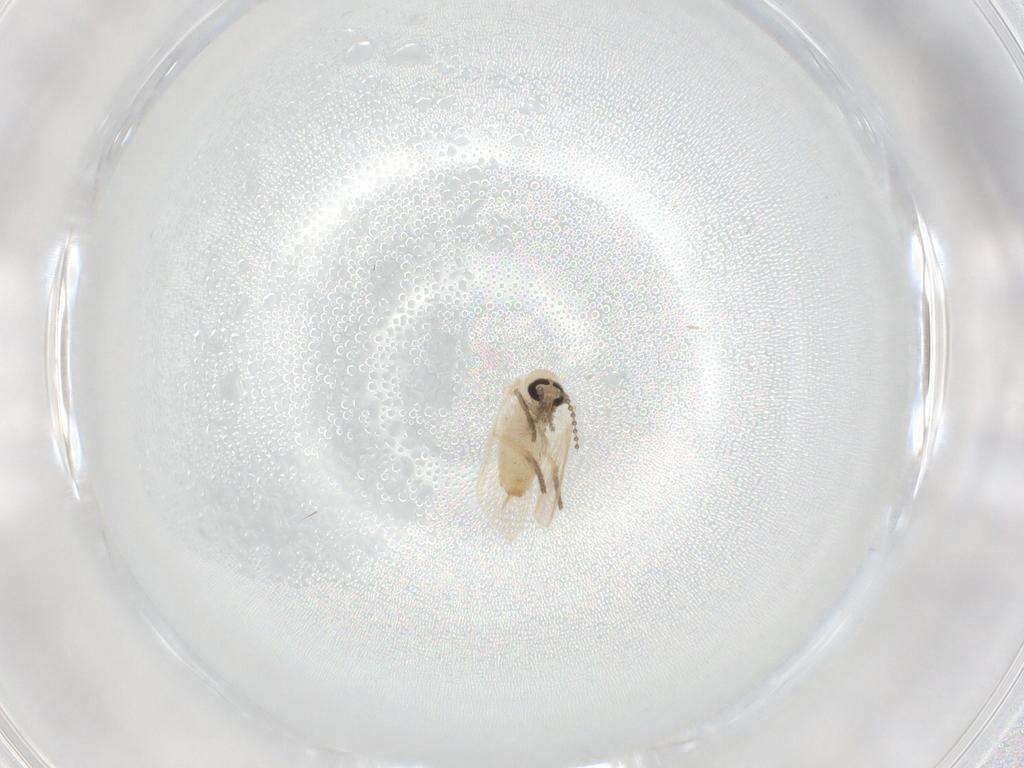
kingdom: Animalia
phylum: Arthropoda
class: Insecta
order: Diptera
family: Psychodidae
